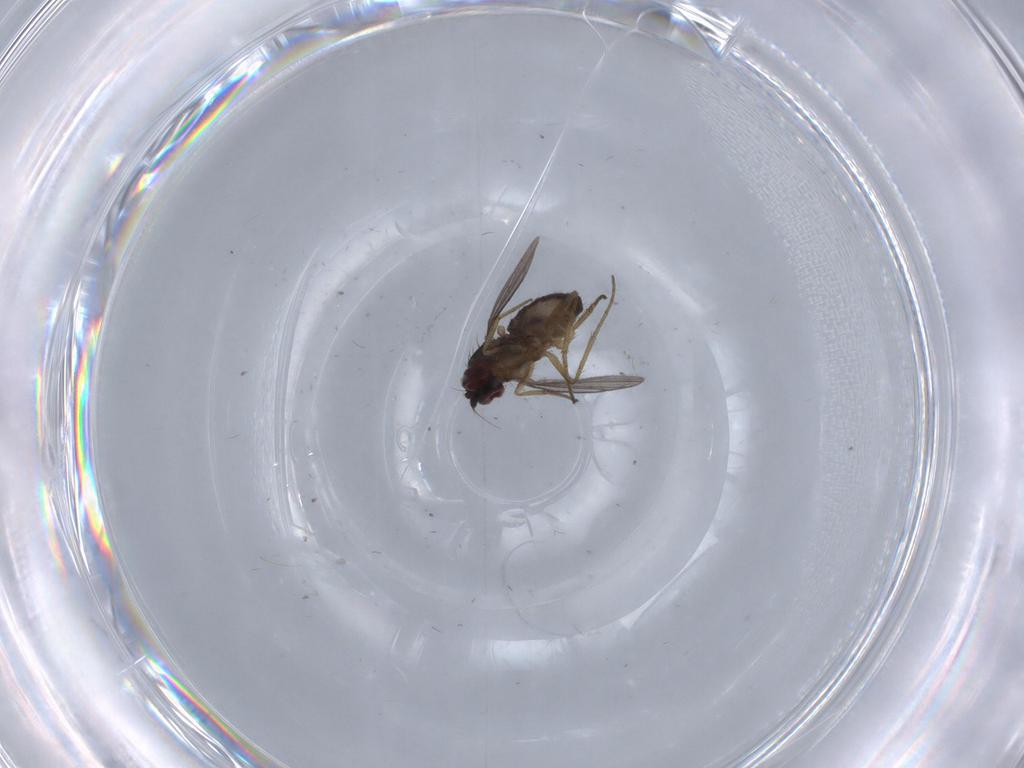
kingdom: Animalia
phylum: Arthropoda
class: Insecta
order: Diptera
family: Dolichopodidae
